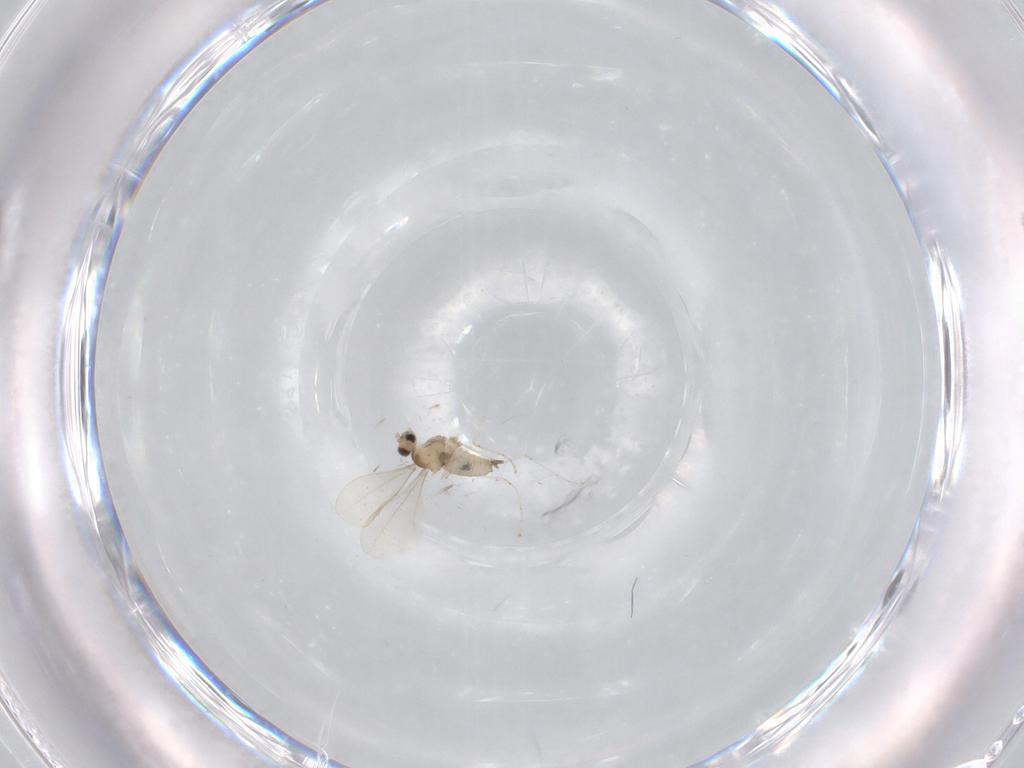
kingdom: Animalia
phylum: Arthropoda
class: Insecta
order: Diptera
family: Cecidomyiidae
